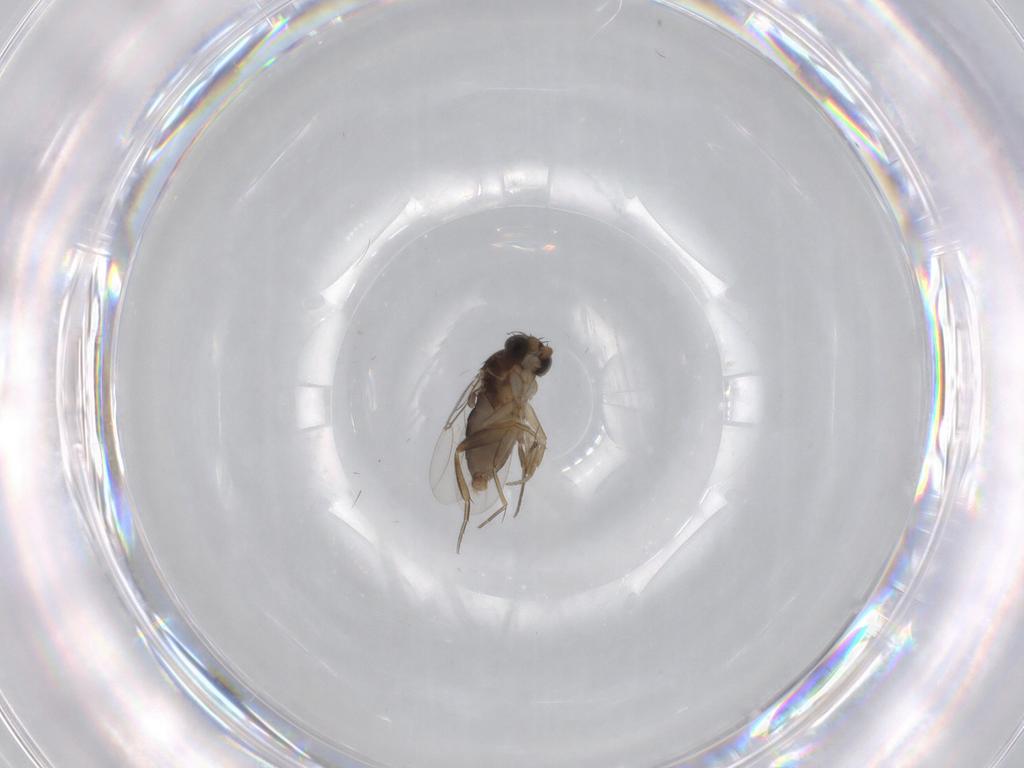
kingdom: Animalia
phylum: Arthropoda
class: Insecta
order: Diptera
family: Phoridae
